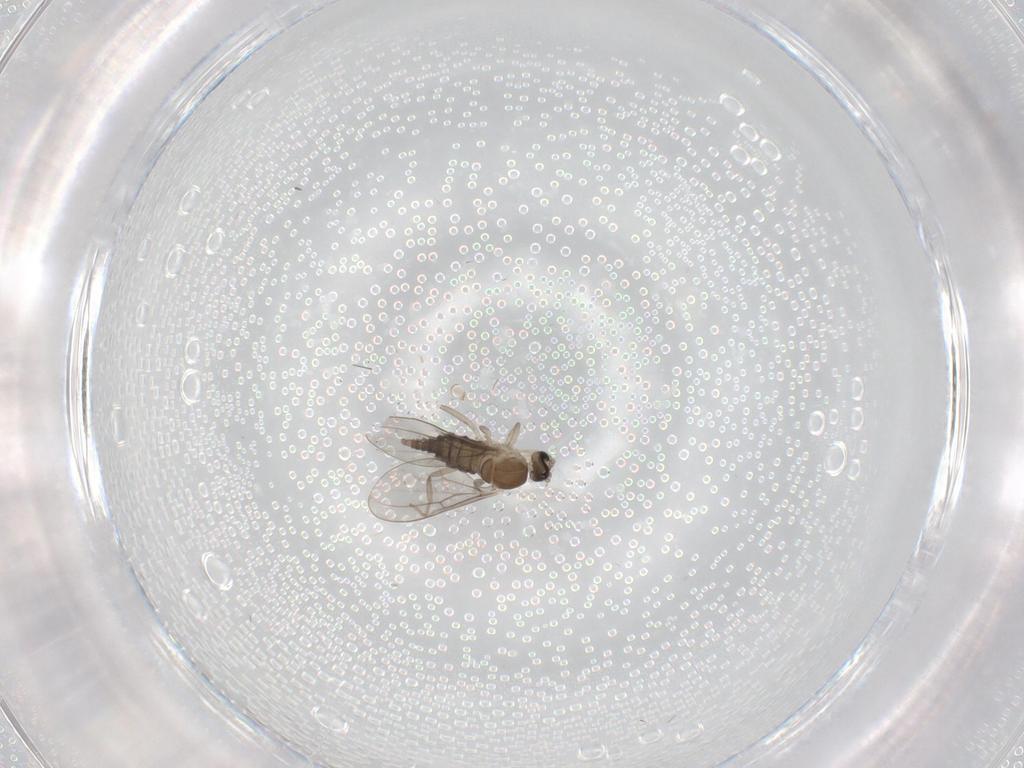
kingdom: Animalia
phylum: Arthropoda
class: Insecta
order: Diptera
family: Cecidomyiidae
